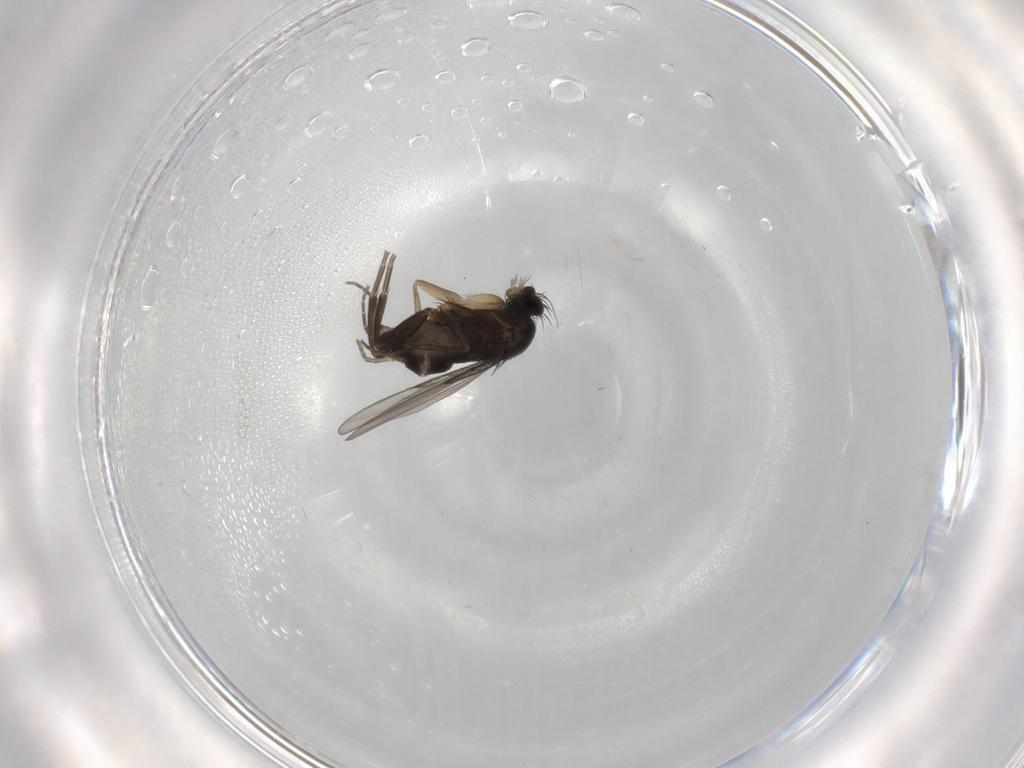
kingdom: Animalia
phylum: Arthropoda
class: Insecta
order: Diptera
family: Phoridae
